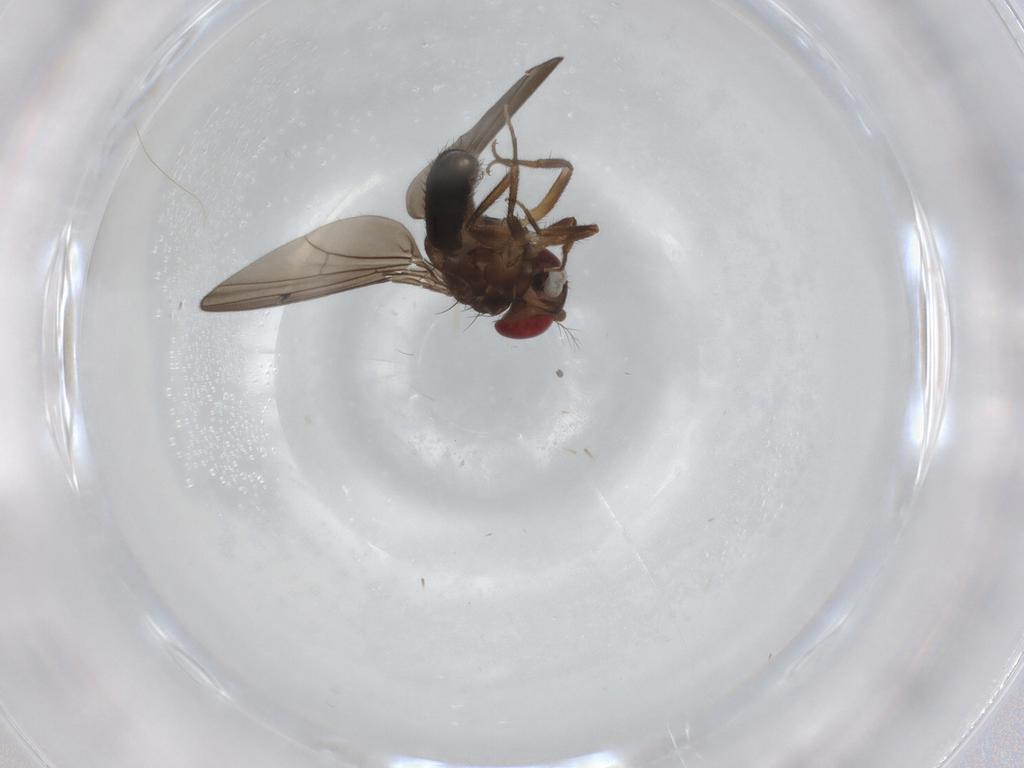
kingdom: Animalia
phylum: Arthropoda
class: Insecta
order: Diptera
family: Drosophilidae
